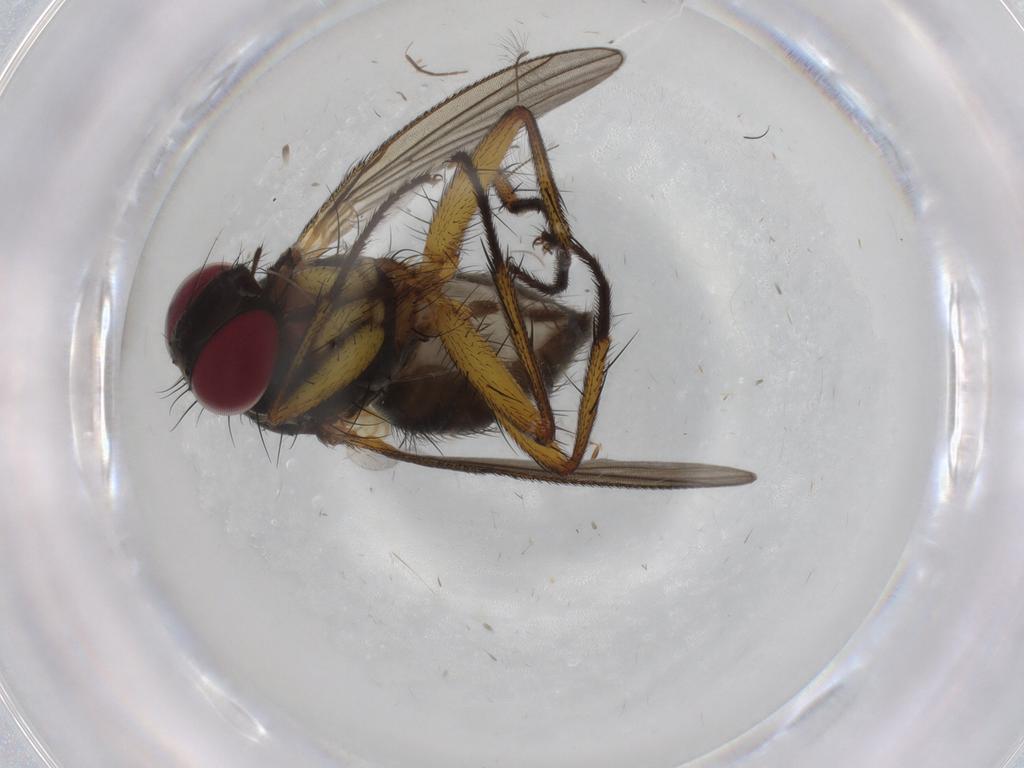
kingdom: Animalia
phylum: Arthropoda
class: Insecta
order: Diptera
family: Muscidae
